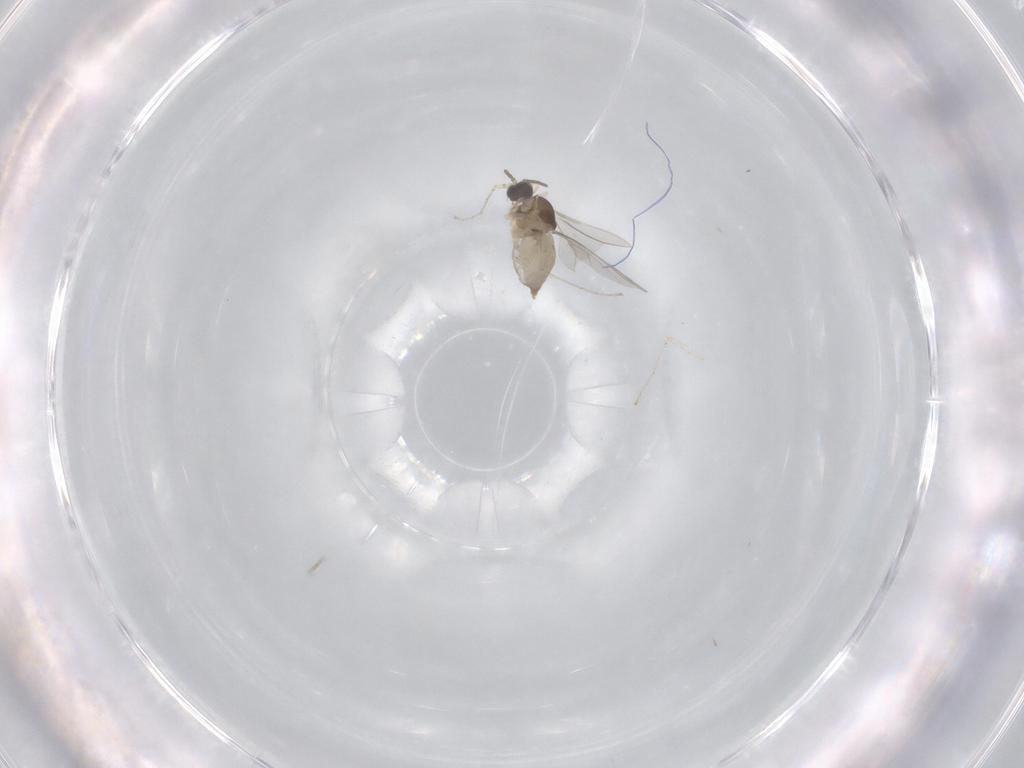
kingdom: Animalia
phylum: Arthropoda
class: Insecta
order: Diptera
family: Cecidomyiidae
